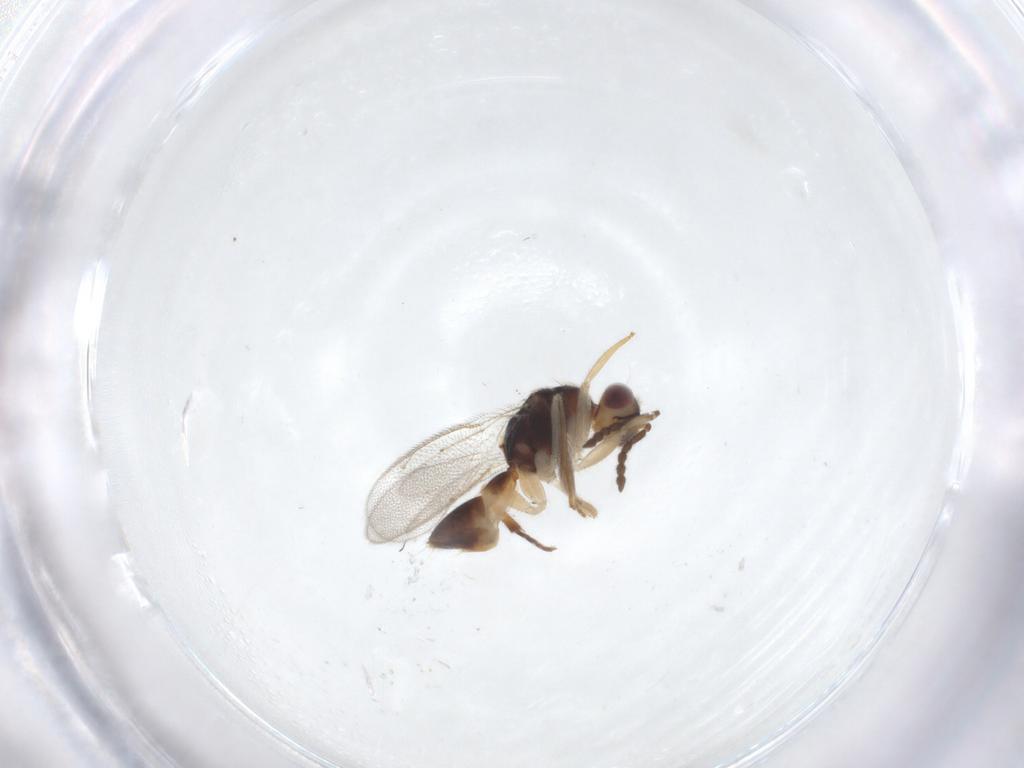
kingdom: Animalia
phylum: Arthropoda
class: Insecta
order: Hymenoptera
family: Eulophidae
